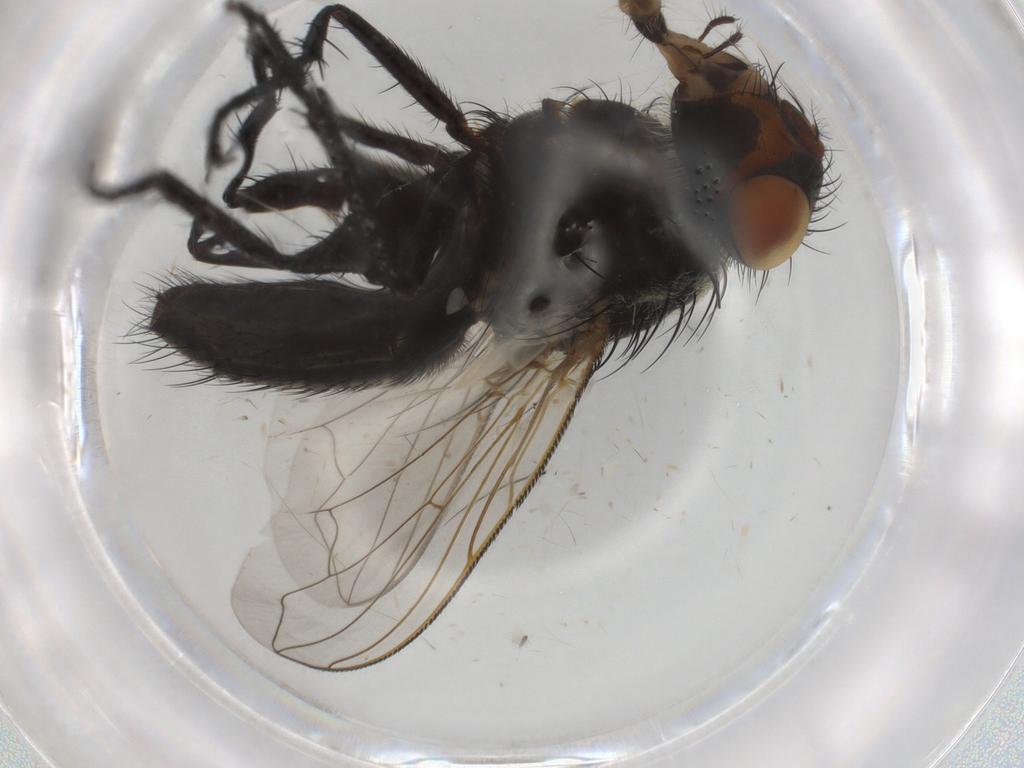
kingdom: Animalia
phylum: Arthropoda
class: Insecta
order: Diptera
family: Polleniidae
